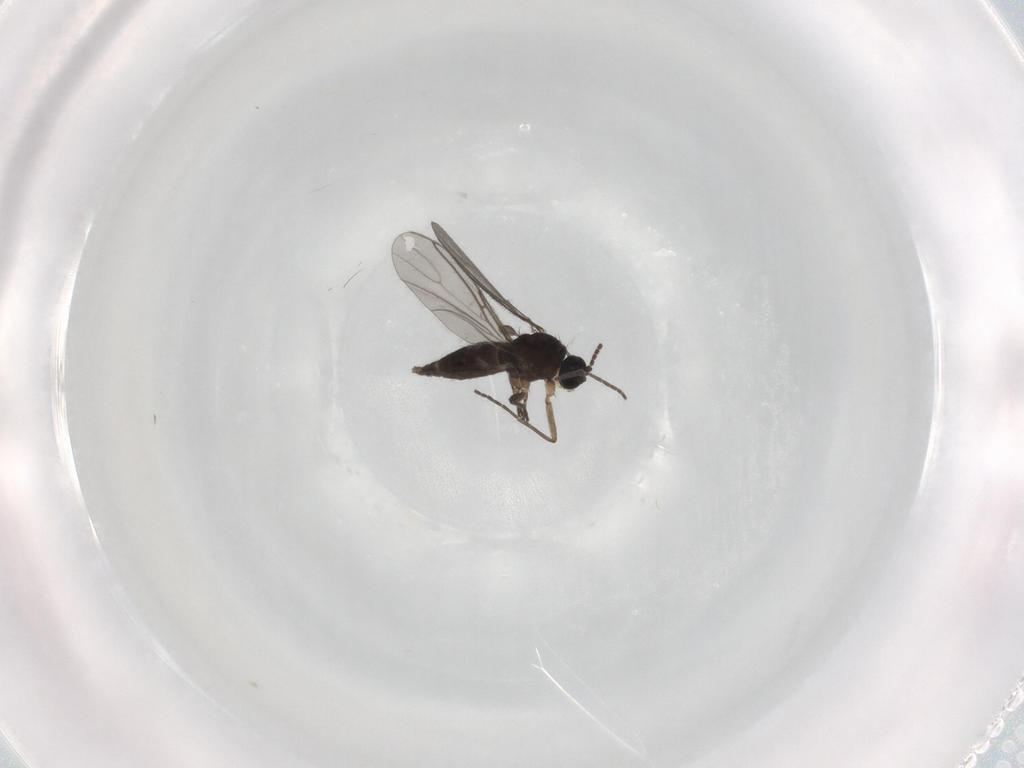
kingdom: Animalia
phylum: Arthropoda
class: Insecta
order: Diptera
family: Sciaridae
